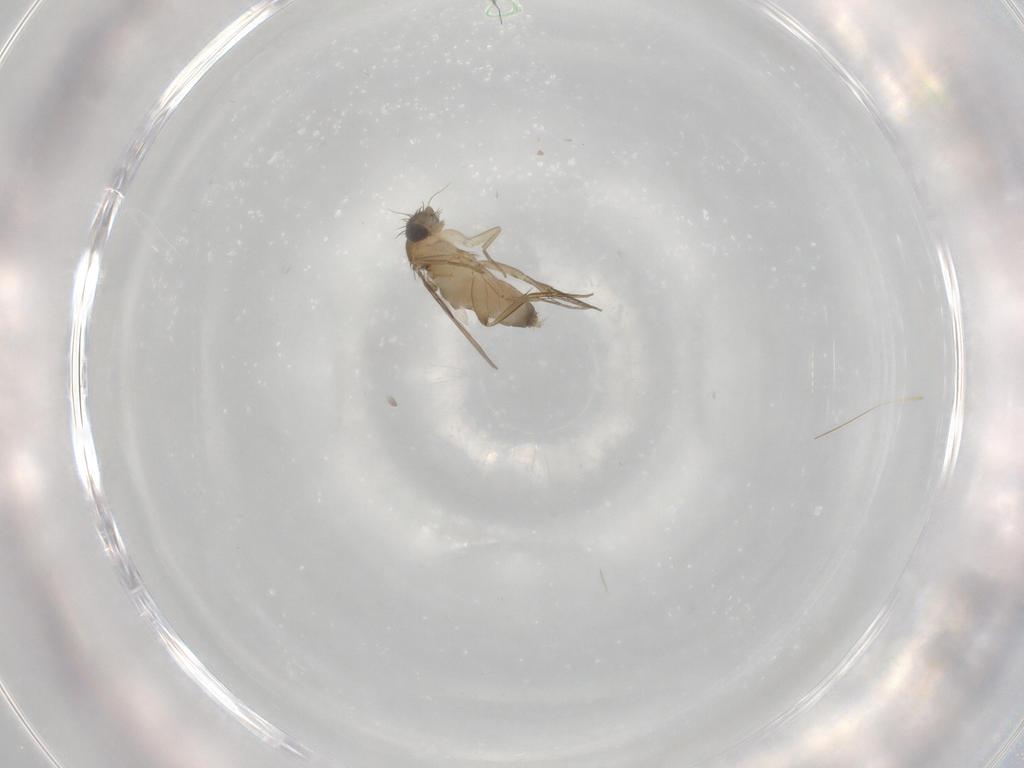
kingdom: Animalia
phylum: Arthropoda
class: Insecta
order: Diptera
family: Phoridae
